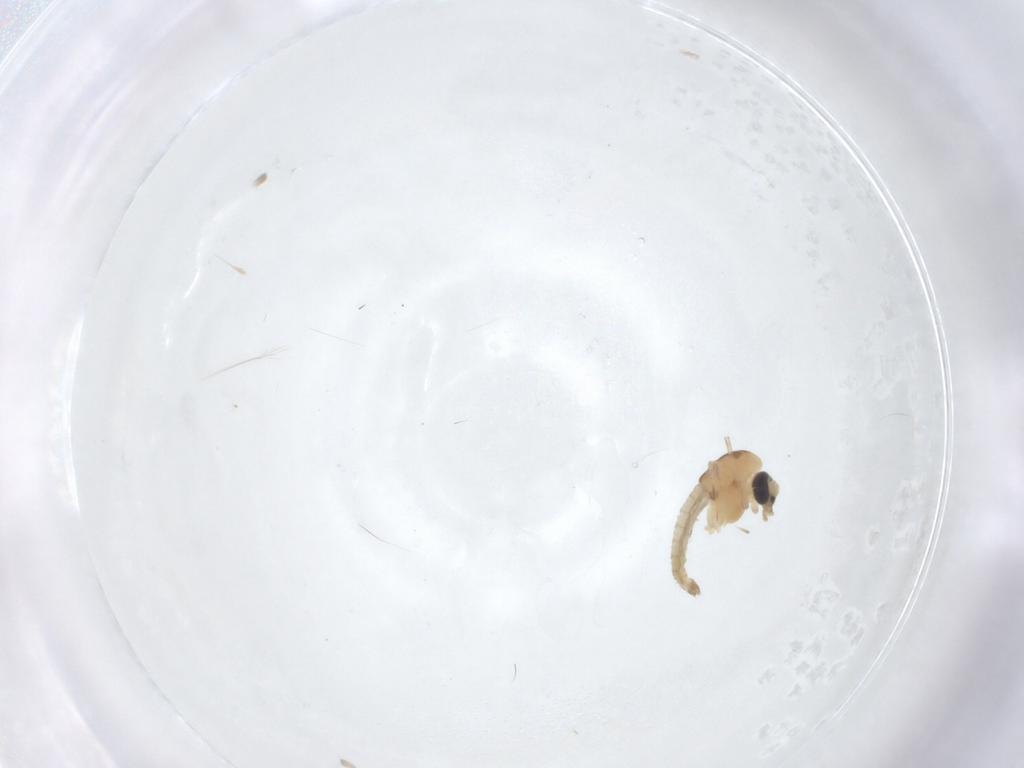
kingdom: Animalia
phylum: Arthropoda
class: Insecta
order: Diptera
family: Chironomidae
